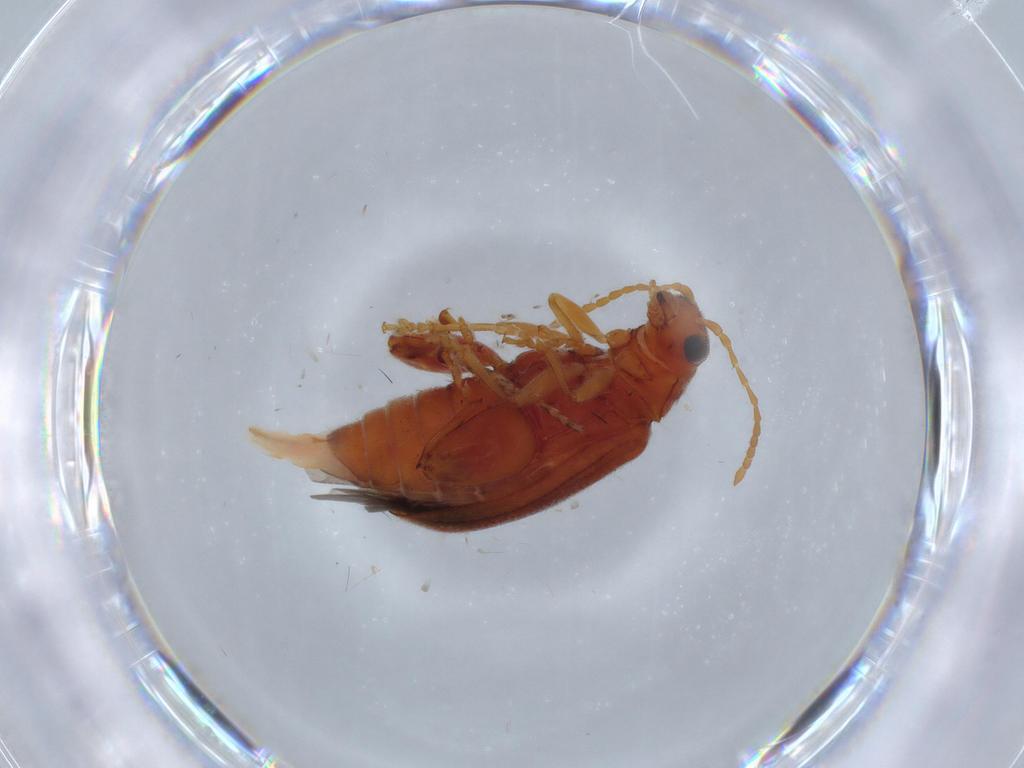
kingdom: Animalia
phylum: Arthropoda
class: Insecta
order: Coleoptera
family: Chrysomelidae
